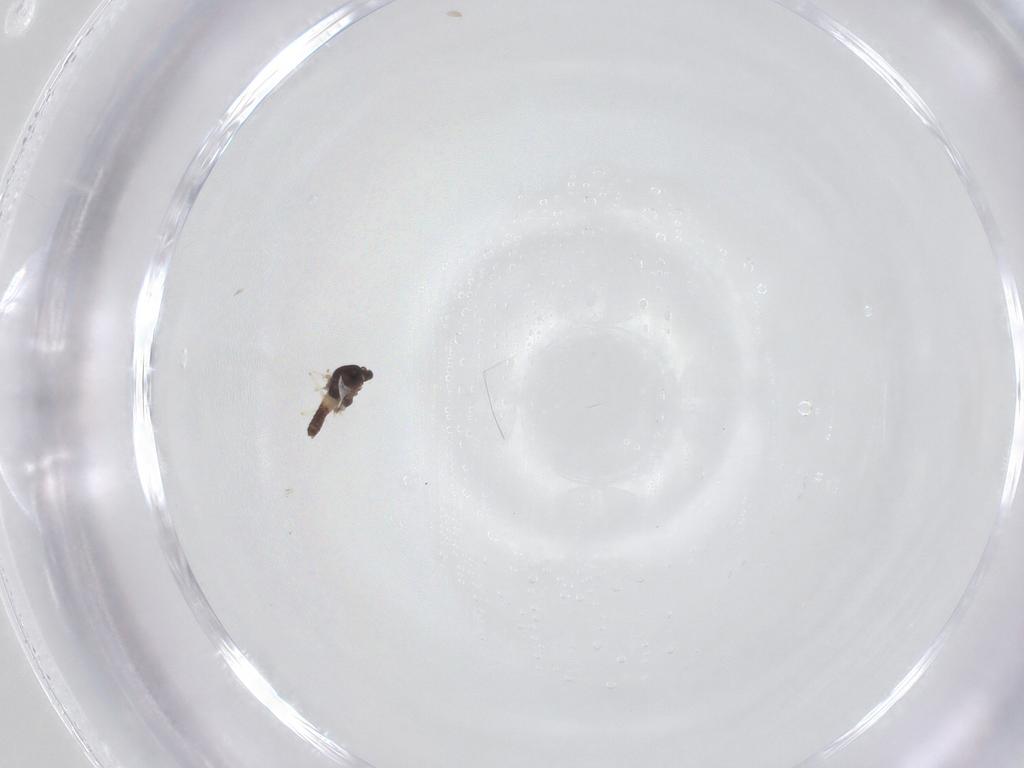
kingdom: Animalia
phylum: Arthropoda
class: Insecta
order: Diptera
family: Chironomidae
